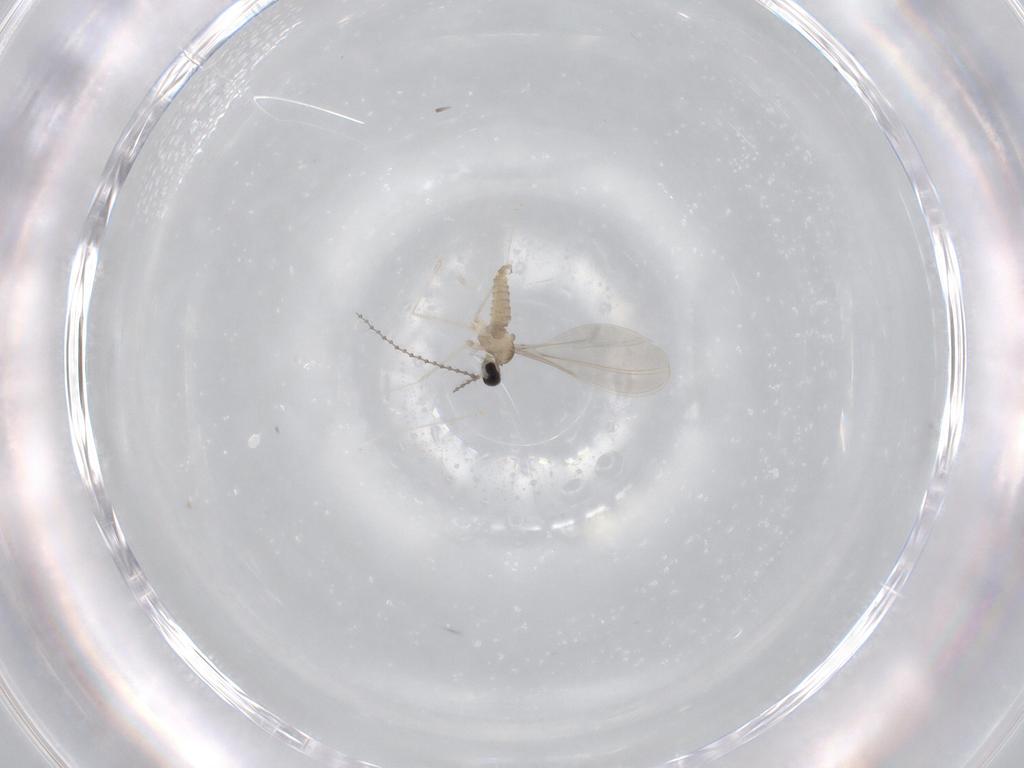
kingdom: Animalia
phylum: Arthropoda
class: Insecta
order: Diptera
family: Cecidomyiidae
